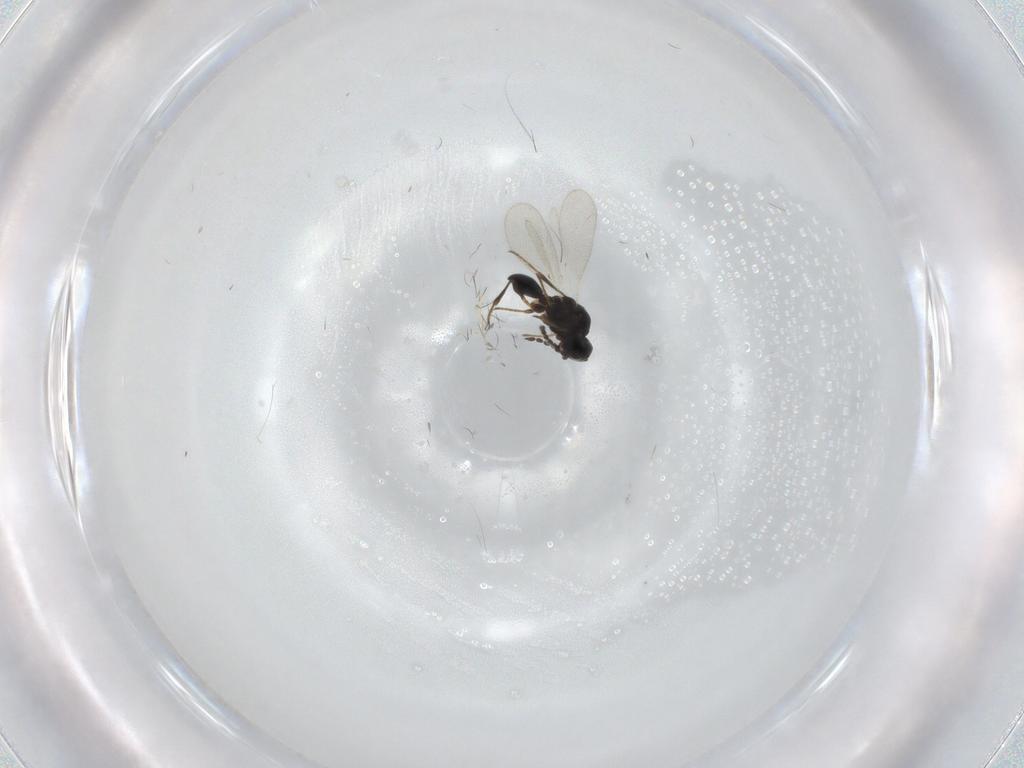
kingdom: Animalia
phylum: Arthropoda
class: Insecta
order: Hymenoptera
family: Platygastridae
